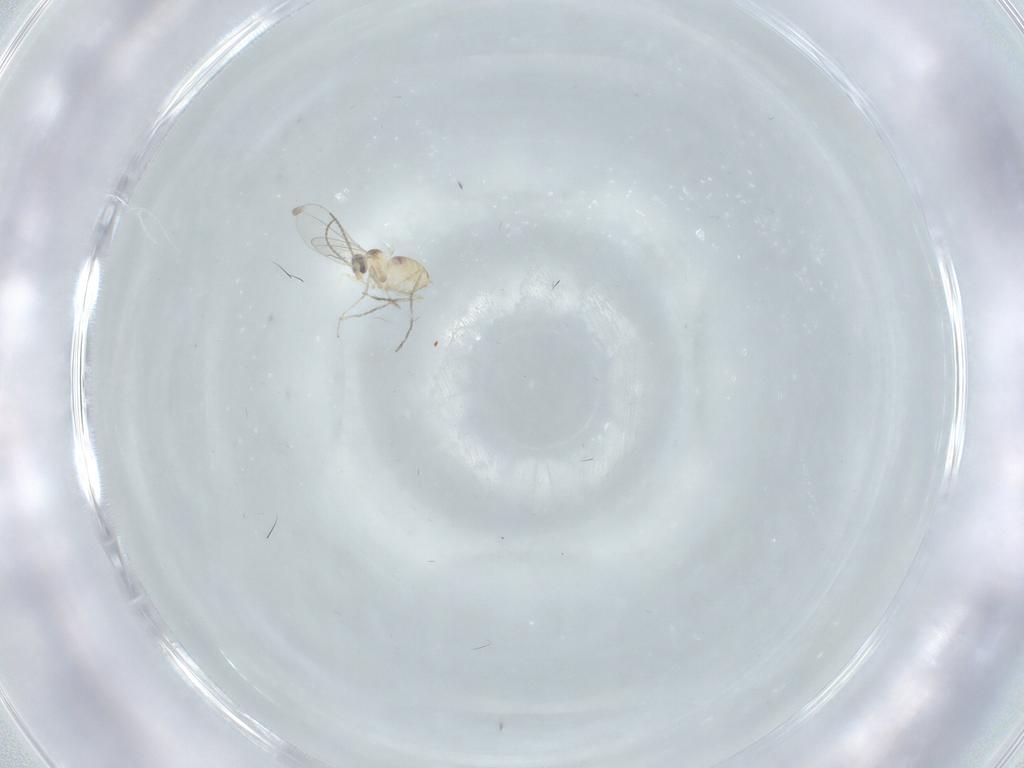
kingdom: Animalia
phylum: Arthropoda
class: Insecta
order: Diptera
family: Cecidomyiidae
